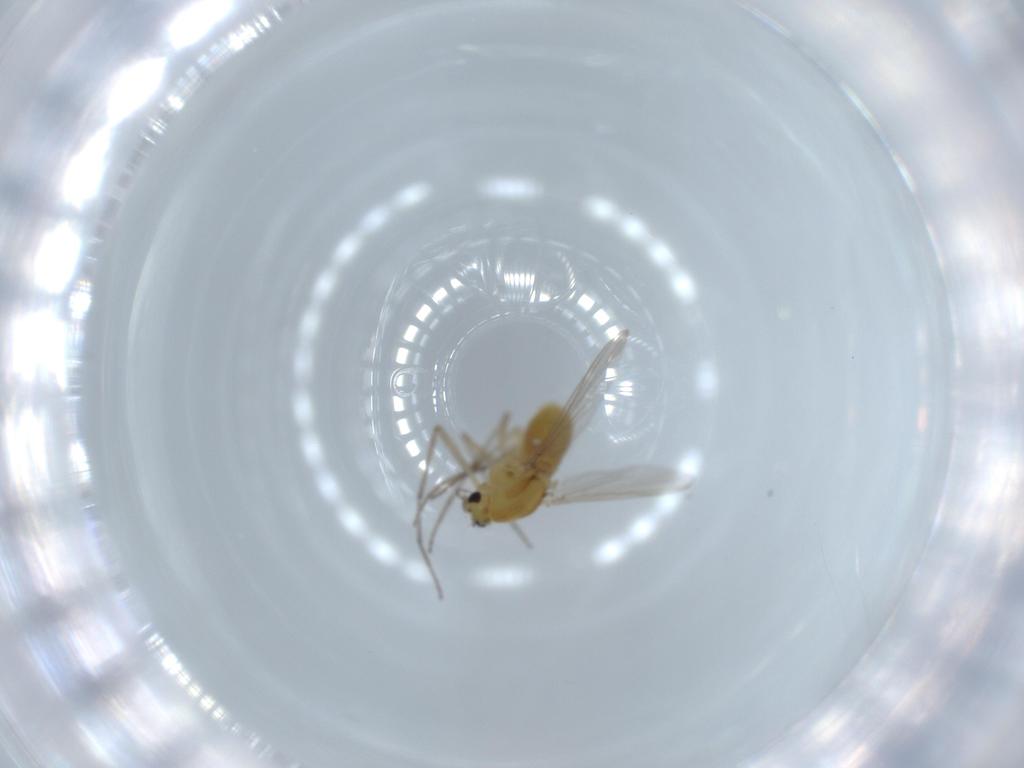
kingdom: Animalia
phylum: Arthropoda
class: Insecta
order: Diptera
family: Chironomidae
